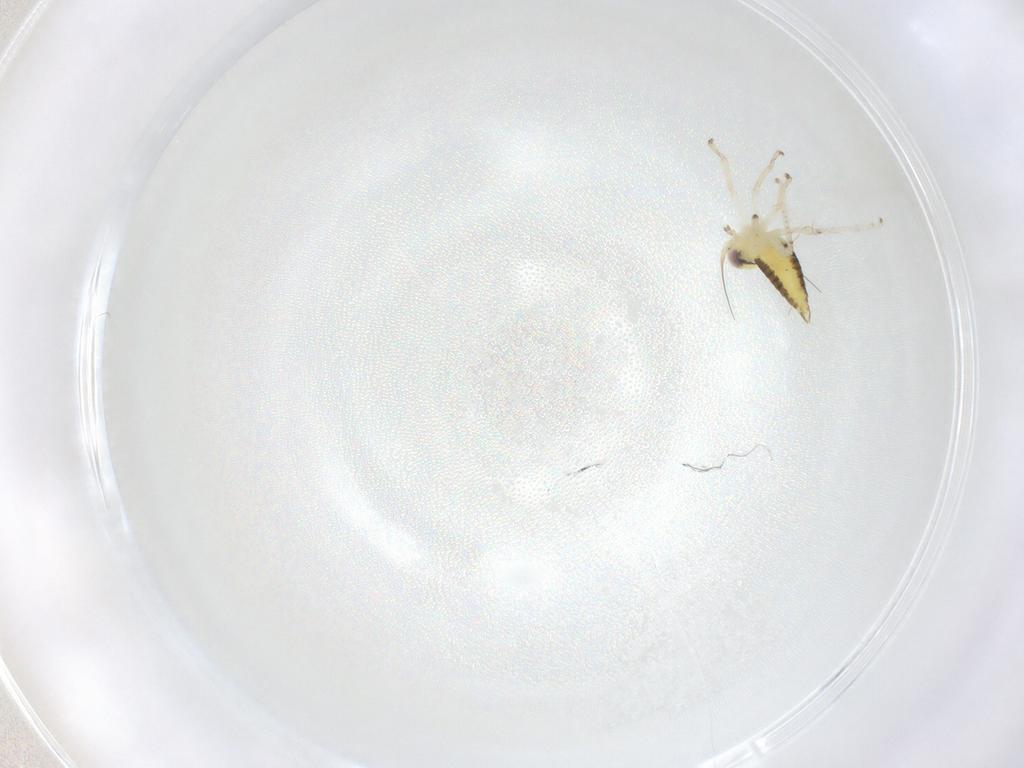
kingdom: Animalia
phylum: Arthropoda
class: Insecta
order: Hemiptera
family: Cicadellidae
